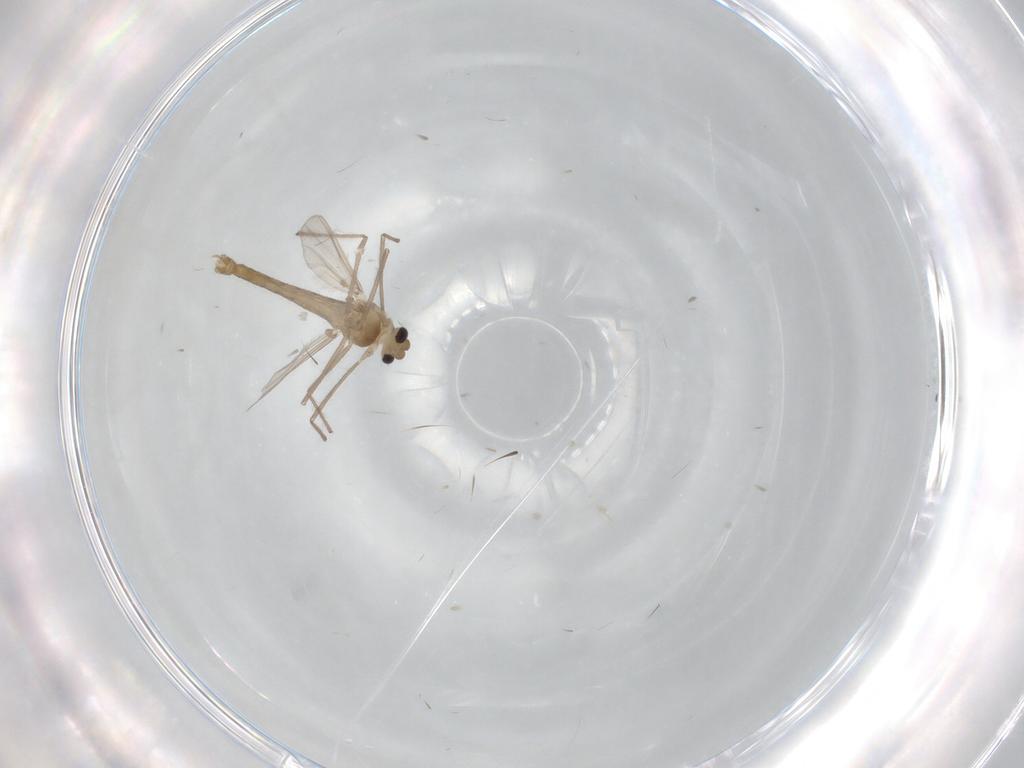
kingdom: Animalia
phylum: Arthropoda
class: Insecta
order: Diptera
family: Chironomidae
